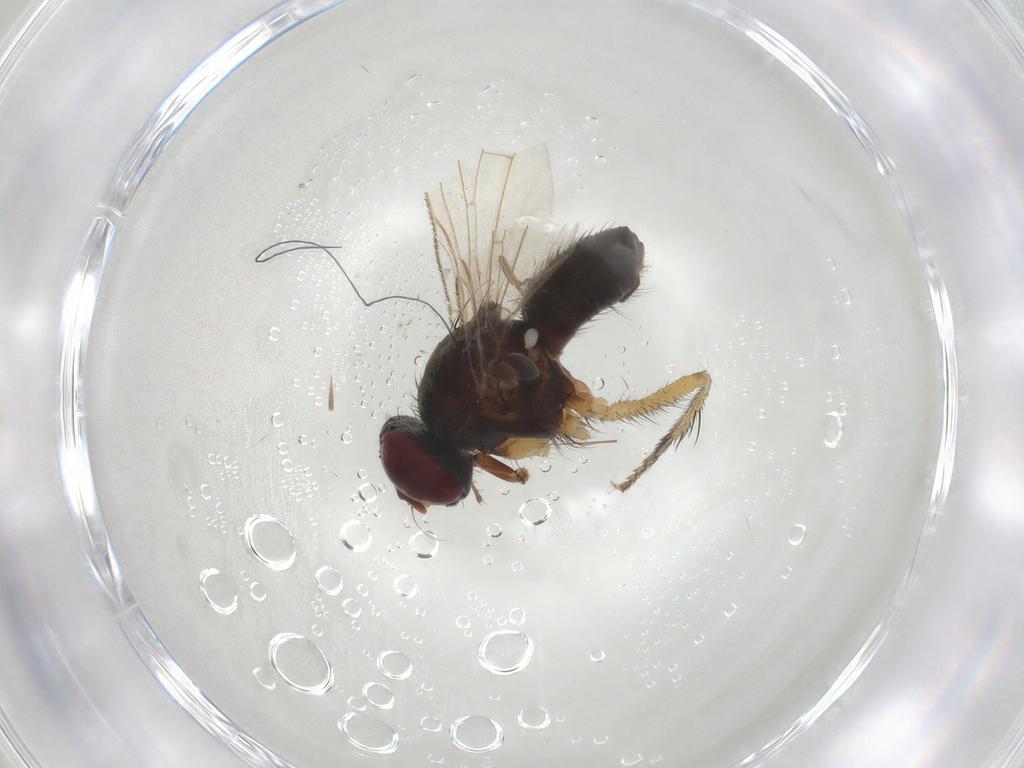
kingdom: Animalia
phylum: Arthropoda
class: Insecta
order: Diptera
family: Muscidae
